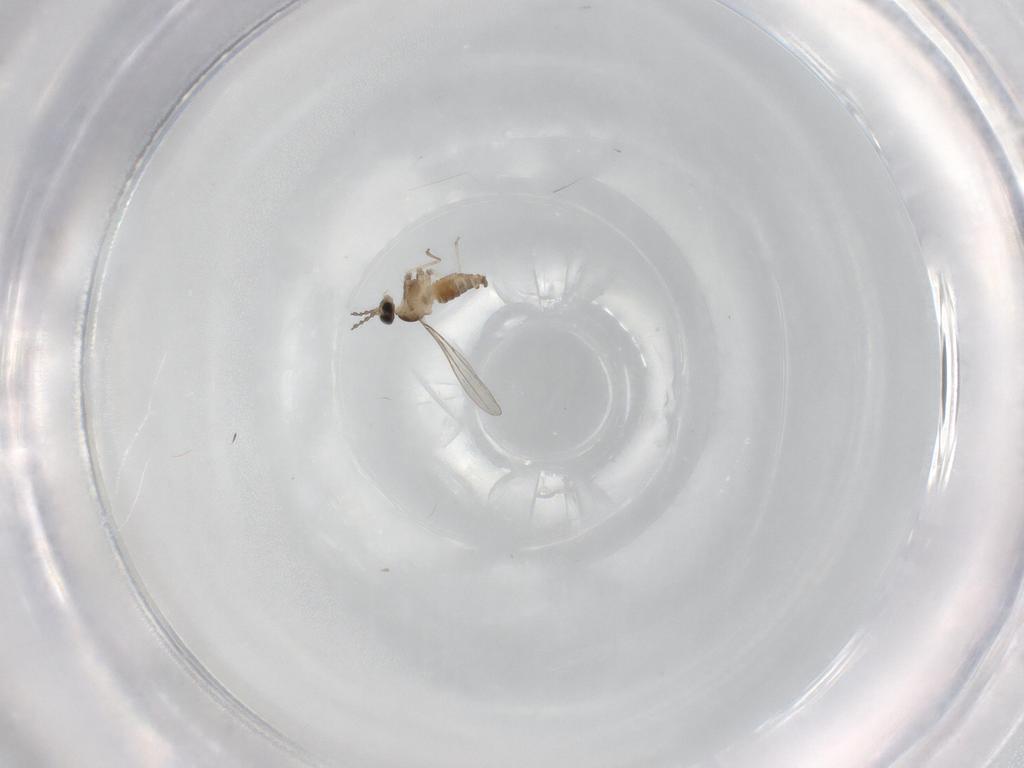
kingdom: Animalia
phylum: Arthropoda
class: Insecta
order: Diptera
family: Cecidomyiidae
